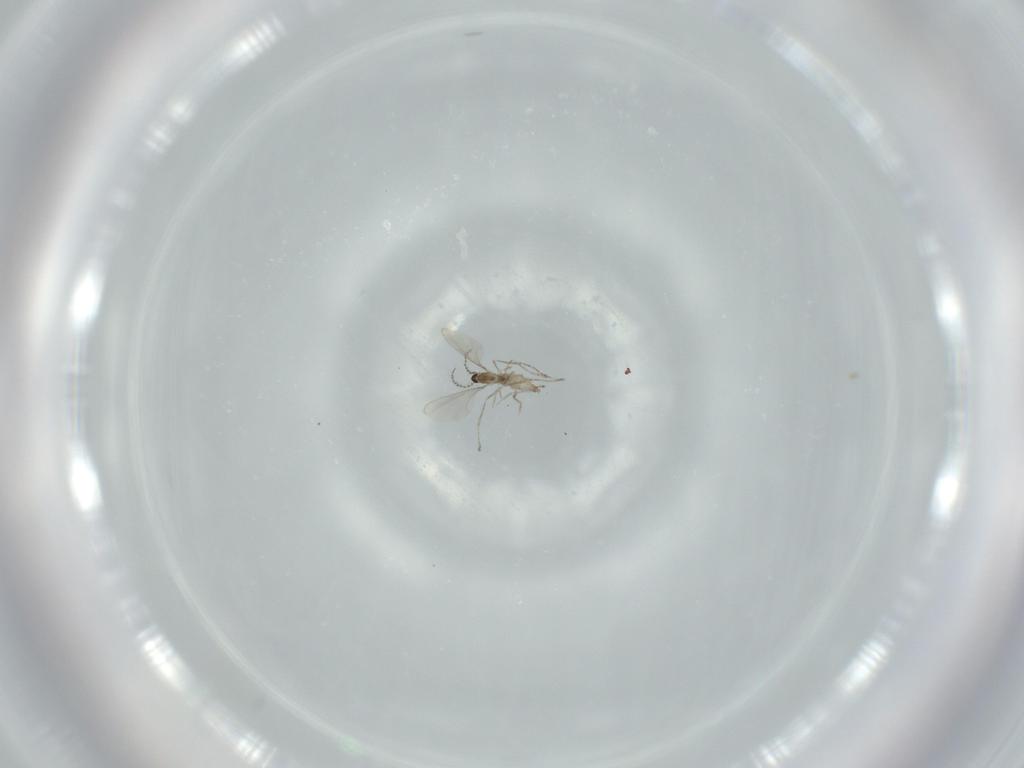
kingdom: Animalia
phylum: Arthropoda
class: Insecta
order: Diptera
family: Cecidomyiidae
